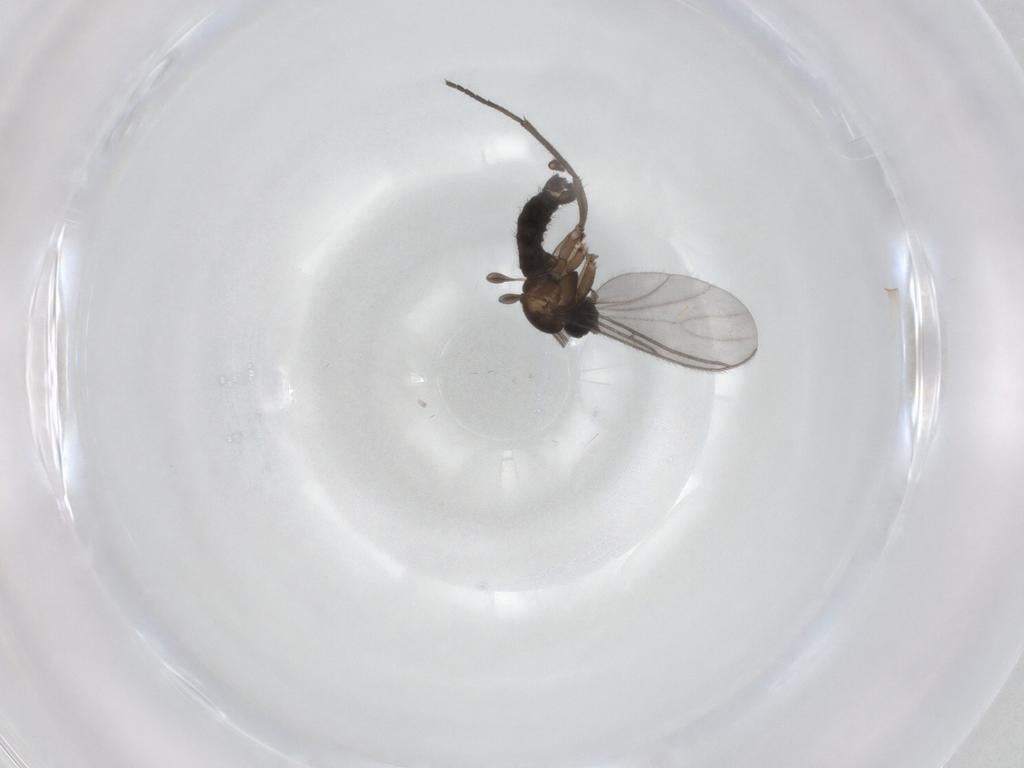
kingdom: Animalia
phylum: Arthropoda
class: Insecta
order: Diptera
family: Sciaridae
